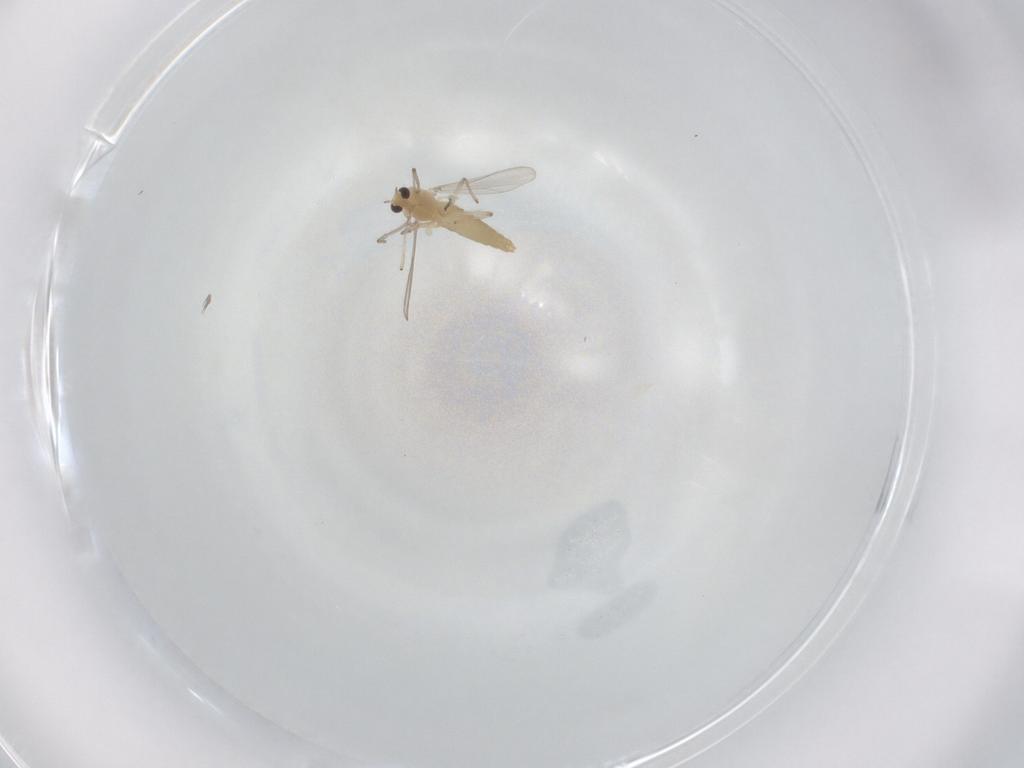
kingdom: Animalia
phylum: Arthropoda
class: Insecta
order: Diptera
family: Chironomidae
